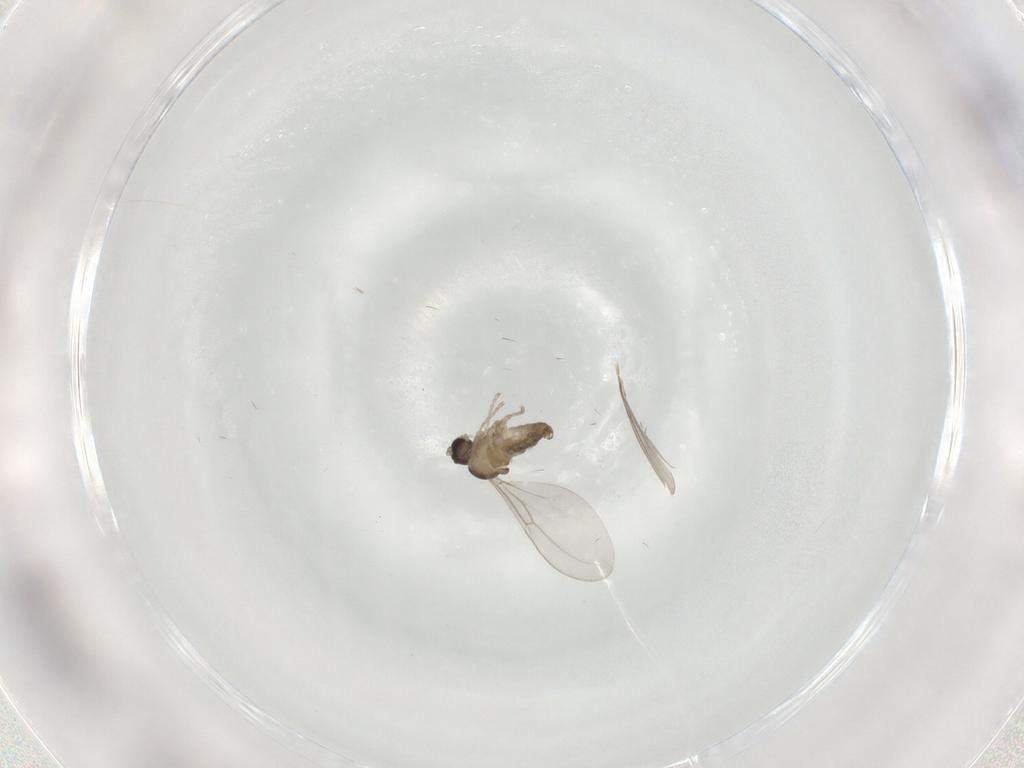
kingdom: Animalia
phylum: Arthropoda
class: Insecta
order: Diptera
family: Cecidomyiidae
